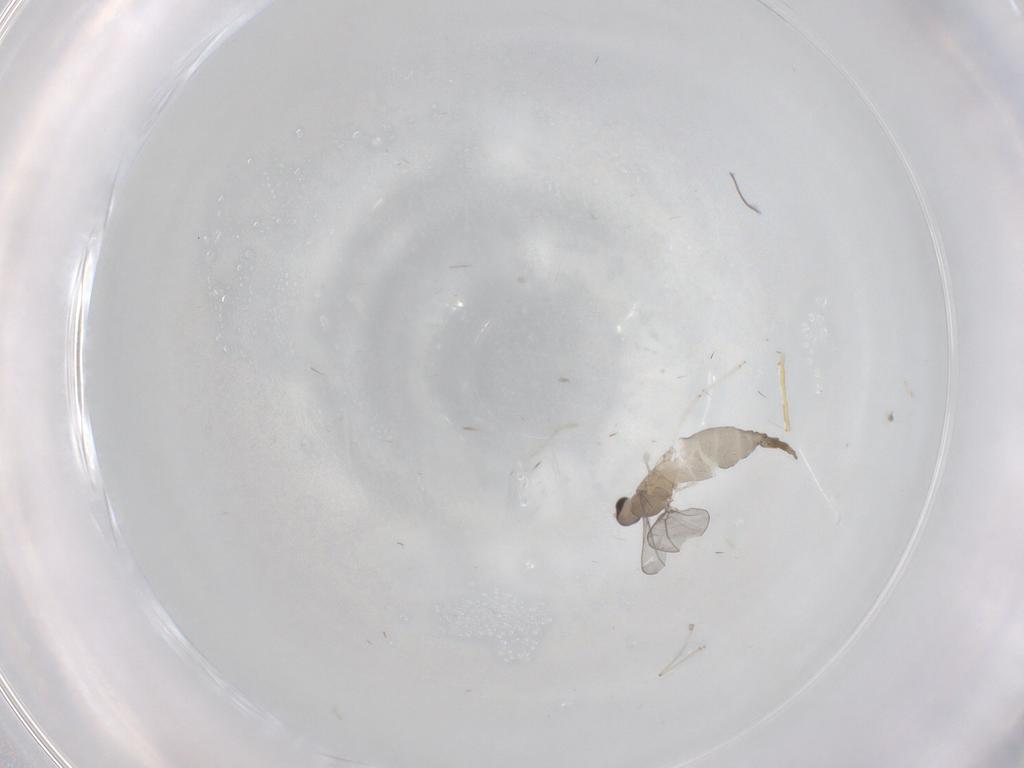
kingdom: Animalia
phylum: Arthropoda
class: Insecta
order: Diptera
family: Cecidomyiidae
